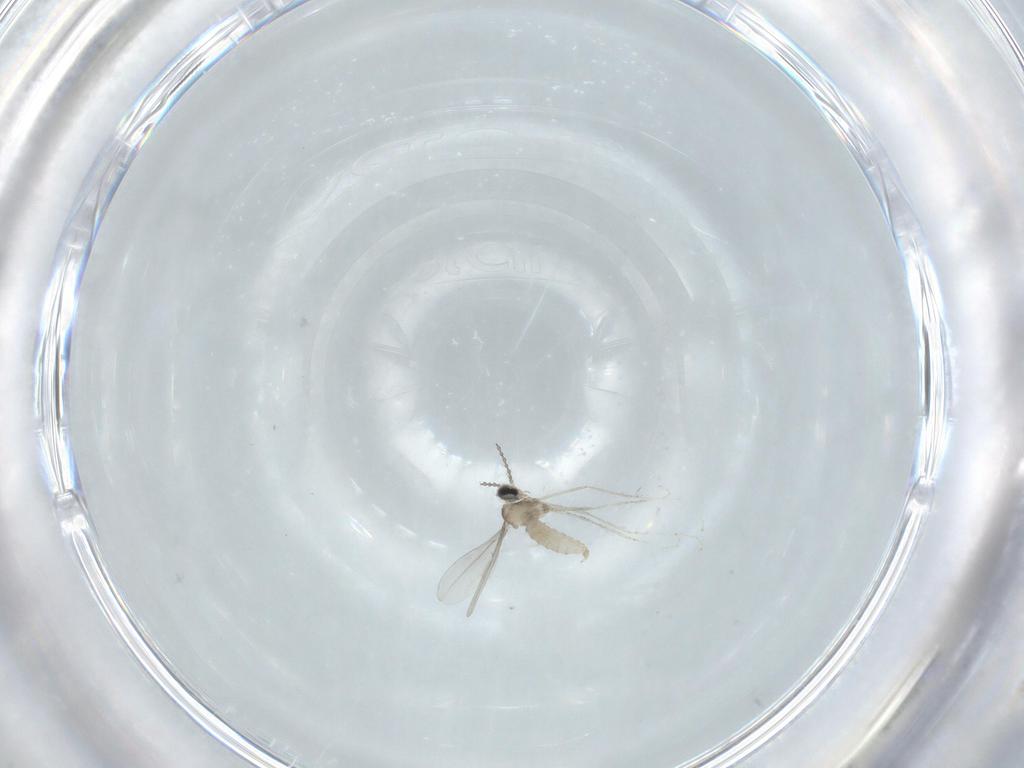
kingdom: Animalia
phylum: Arthropoda
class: Insecta
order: Diptera
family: Cecidomyiidae
